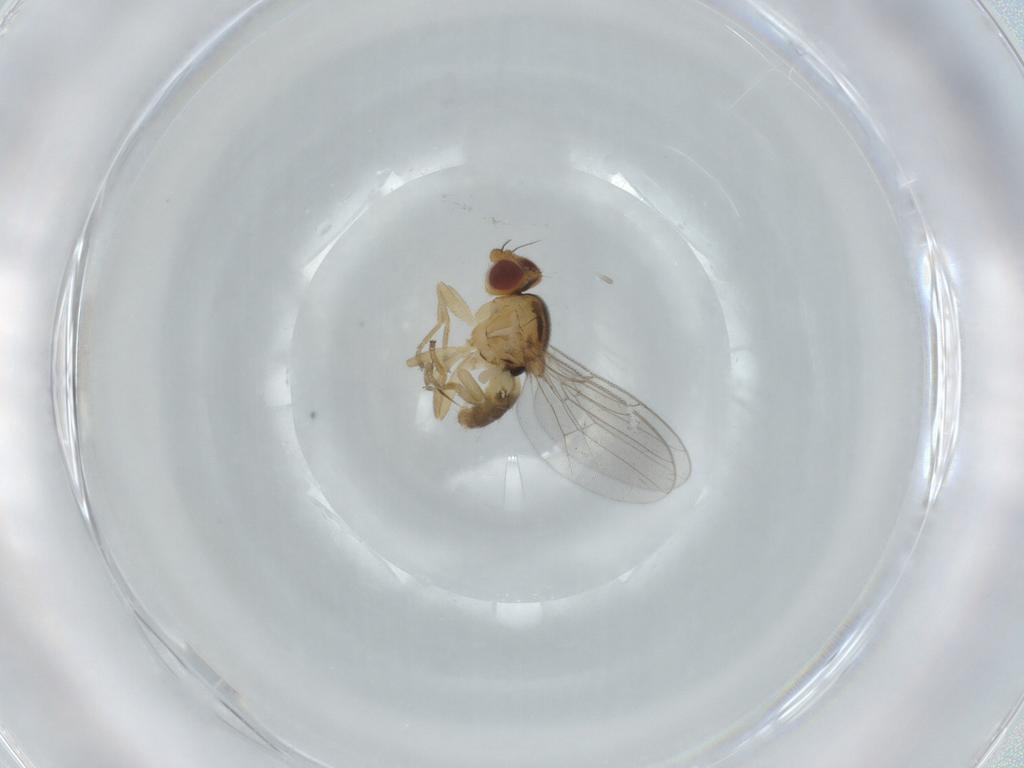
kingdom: Animalia
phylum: Arthropoda
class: Insecta
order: Diptera
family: Chloropidae
